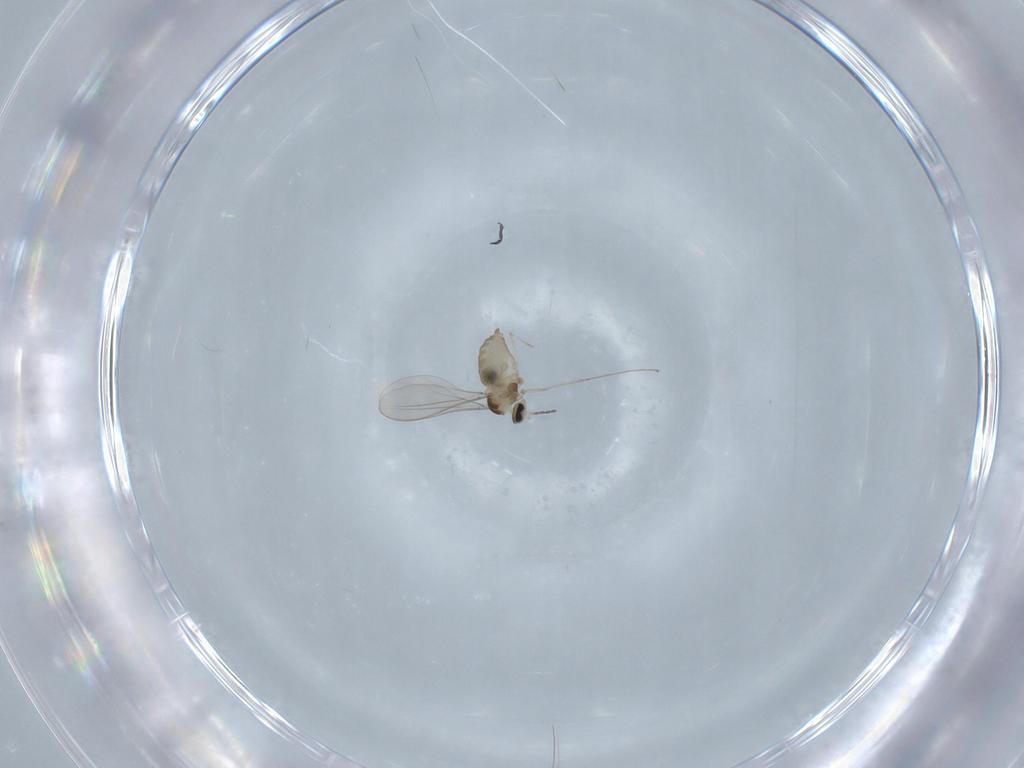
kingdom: Animalia
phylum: Arthropoda
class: Insecta
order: Diptera
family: Cecidomyiidae
